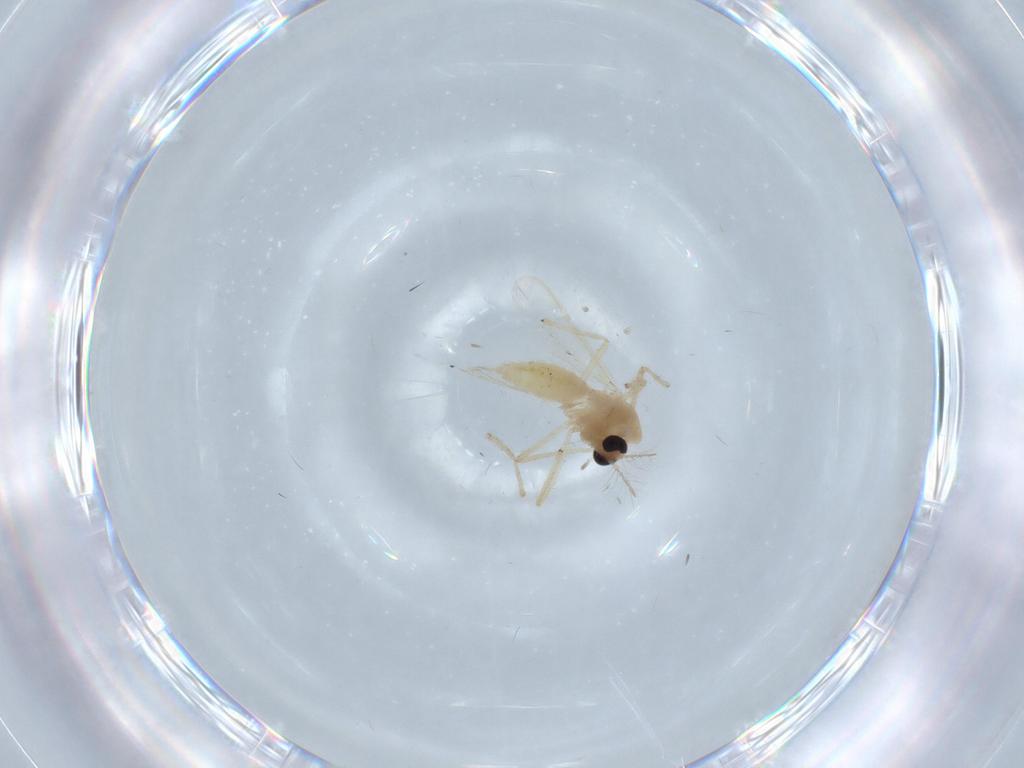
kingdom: Animalia
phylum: Arthropoda
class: Insecta
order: Diptera
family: Chironomidae
